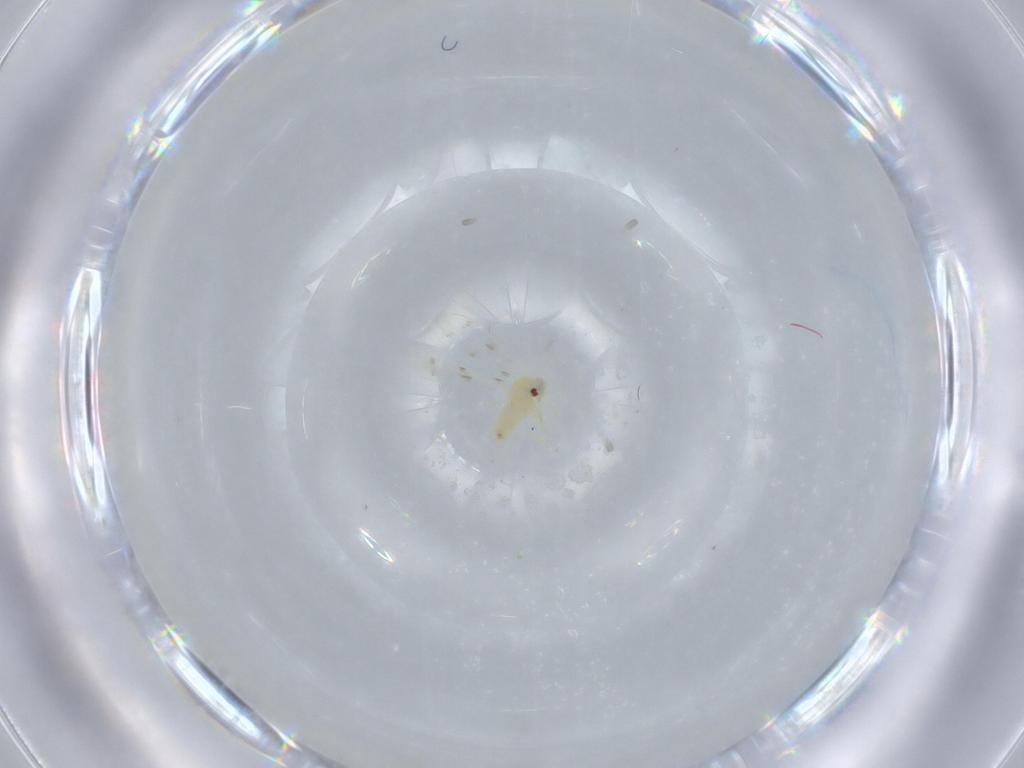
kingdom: Animalia
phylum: Arthropoda
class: Insecta
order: Hemiptera
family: Aleyrodidae
